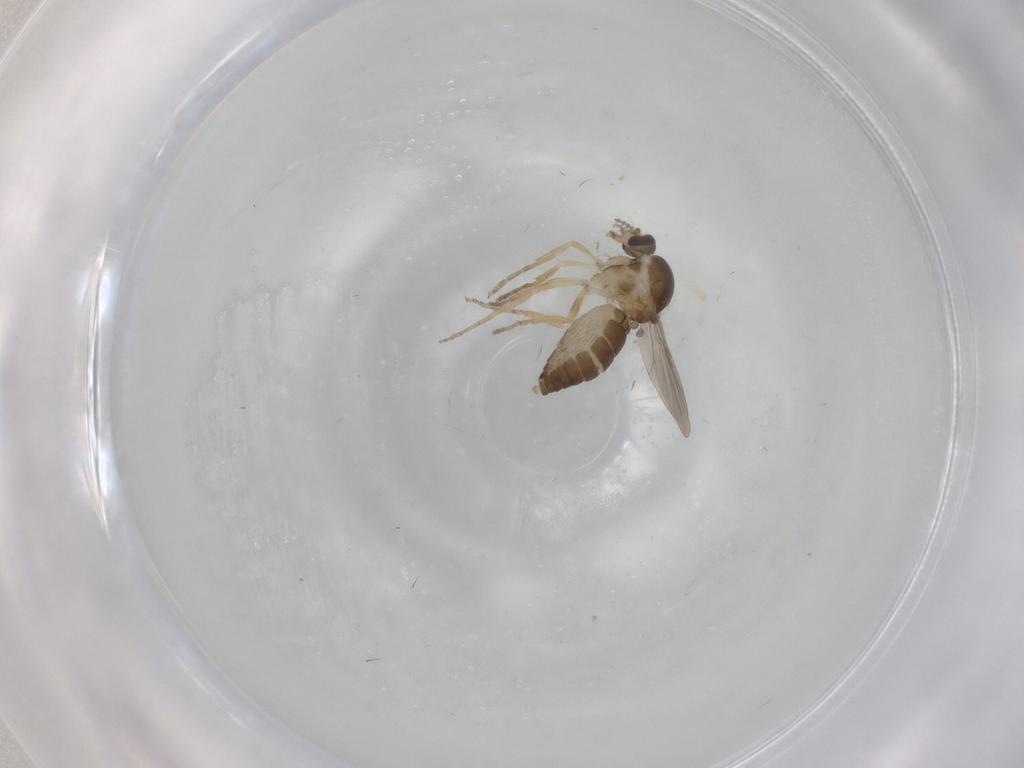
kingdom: Animalia
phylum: Arthropoda
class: Insecta
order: Diptera
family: Ceratopogonidae
